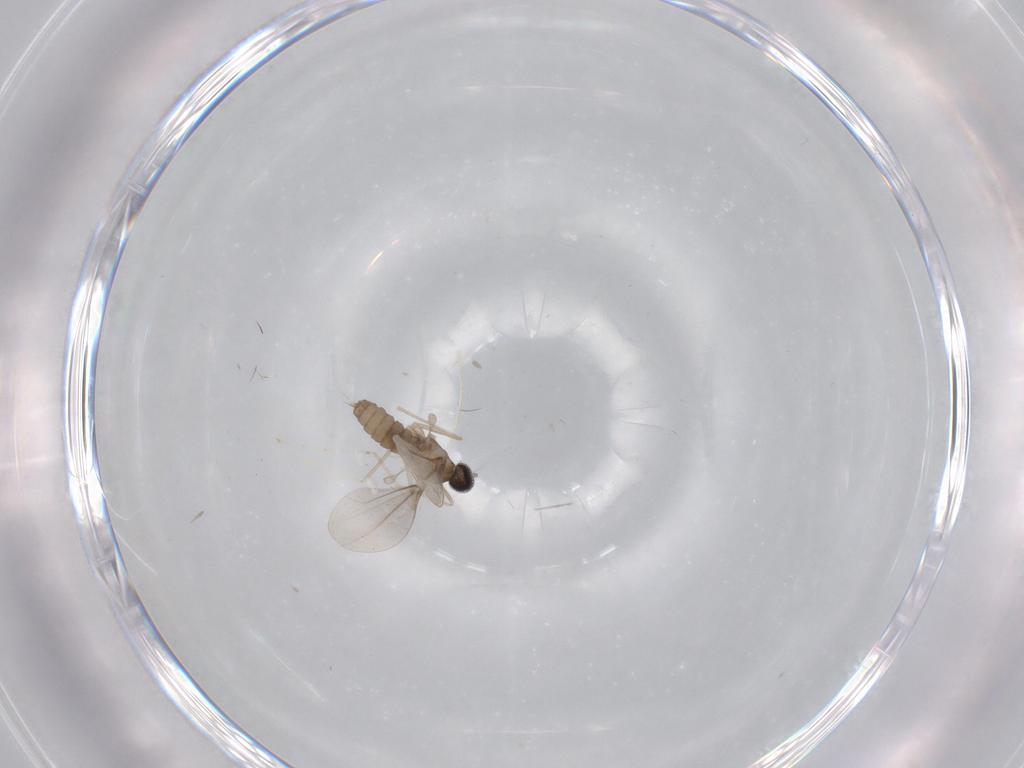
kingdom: Animalia
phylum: Arthropoda
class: Insecta
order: Diptera
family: Cecidomyiidae
